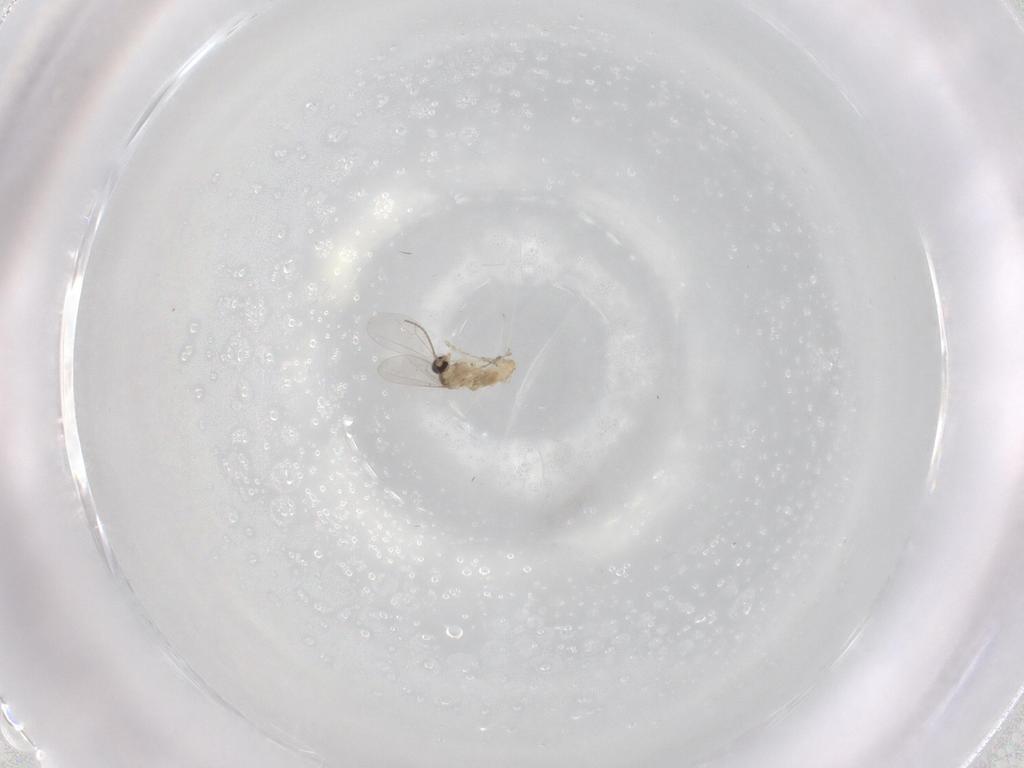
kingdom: Animalia
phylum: Arthropoda
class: Insecta
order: Diptera
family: Cecidomyiidae
